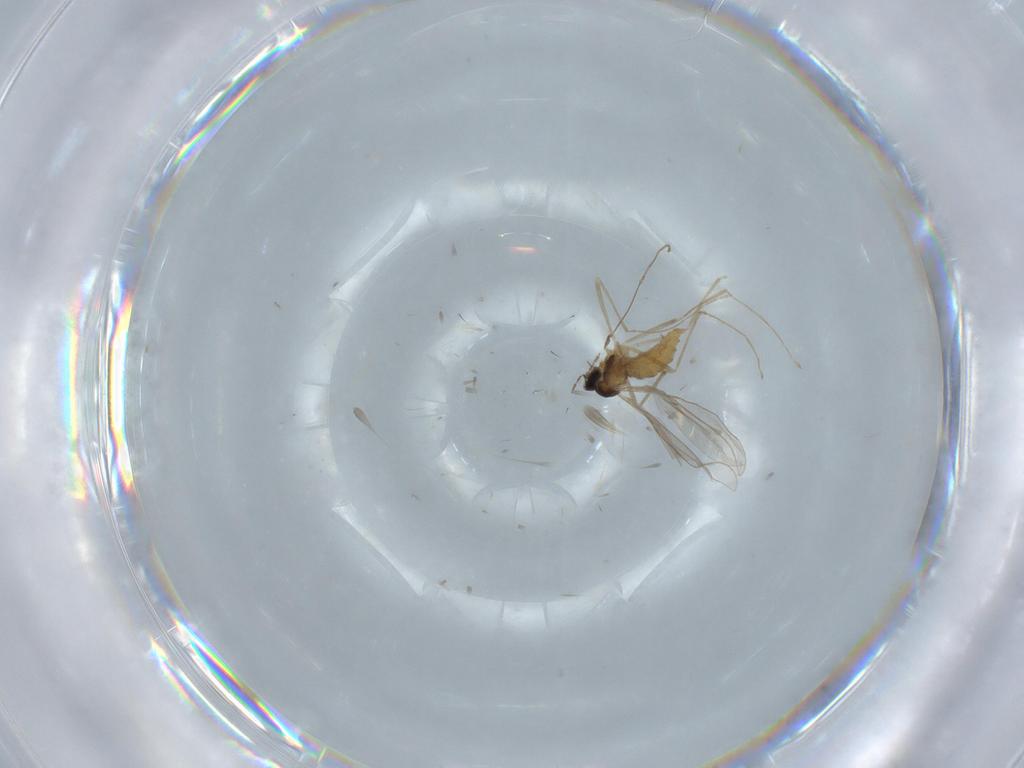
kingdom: Animalia
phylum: Arthropoda
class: Insecta
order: Diptera
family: Cecidomyiidae
